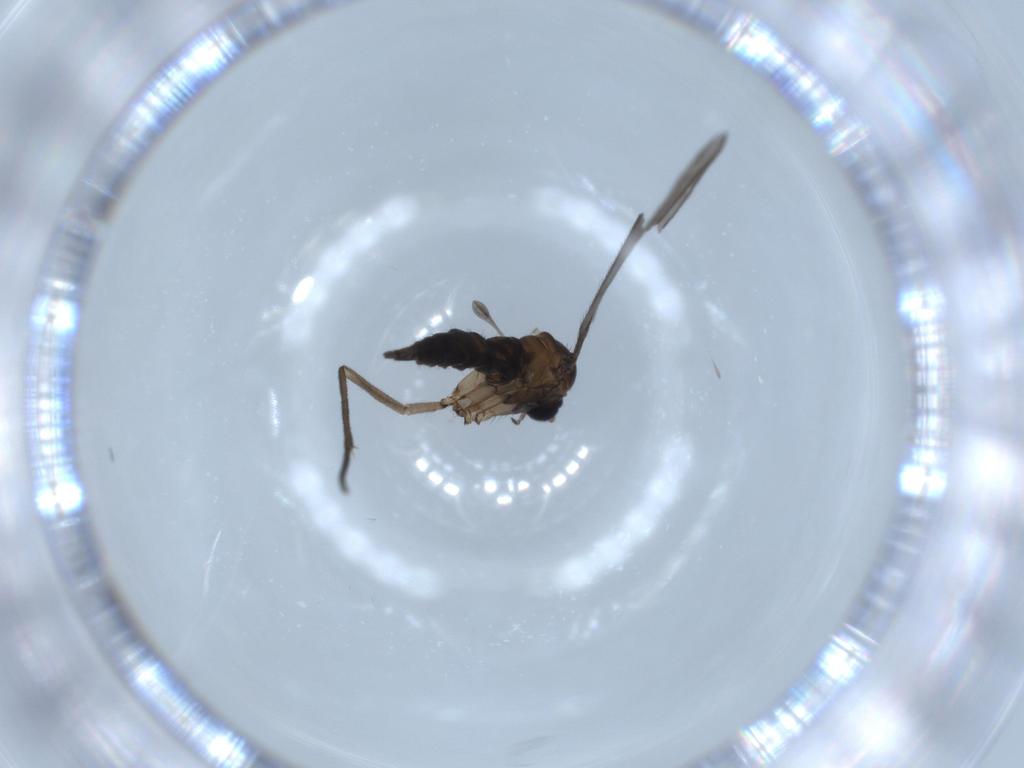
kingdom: Animalia
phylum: Arthropoda
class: Insecta
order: Diptera
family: Sciaridae
